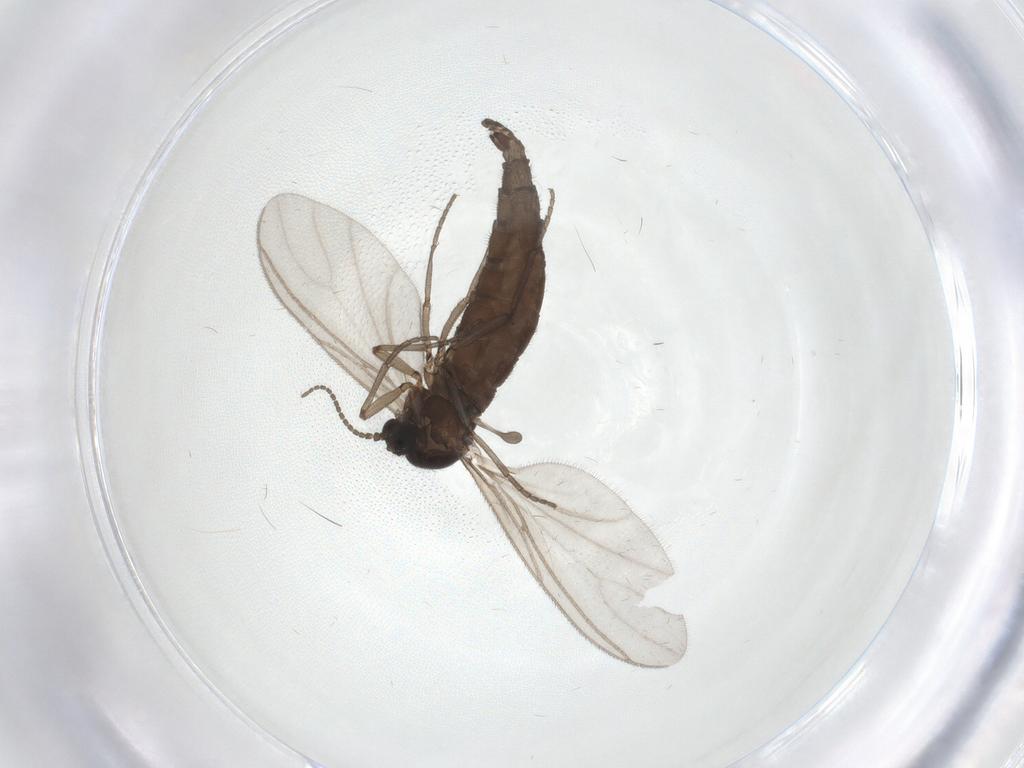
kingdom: Animalia
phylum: Arthropoda
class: Insecta
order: Diptera
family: Sciaridae
